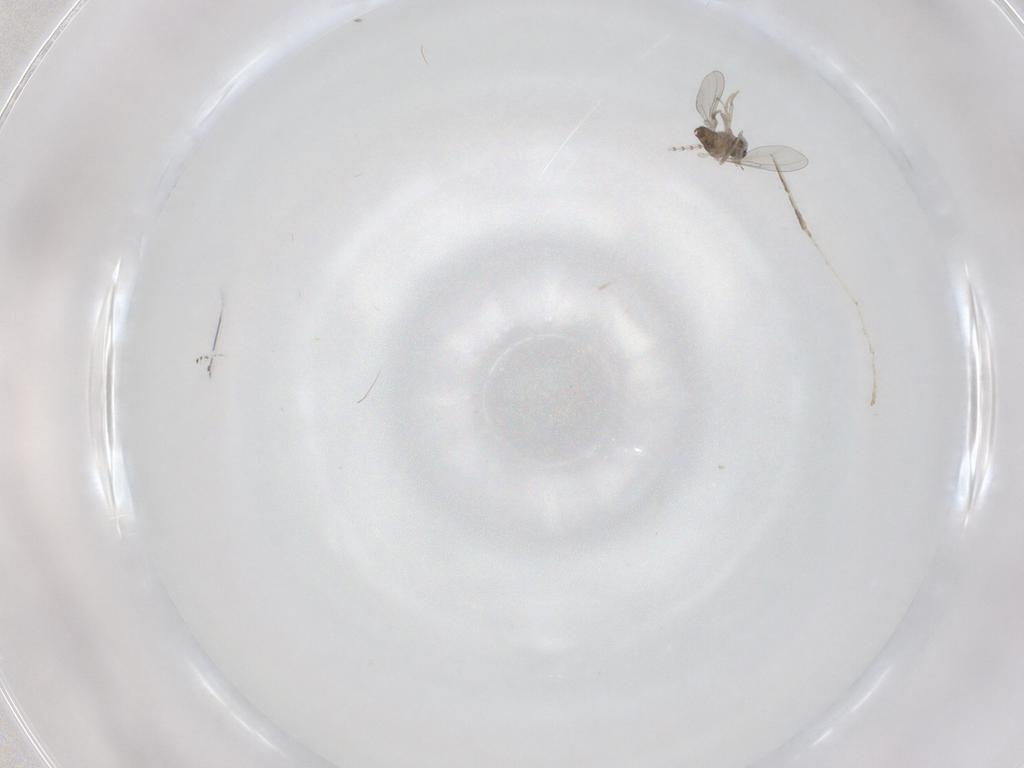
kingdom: Animalia
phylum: Arthropoda
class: Insecta
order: Diptera
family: Cecidomyiidae
